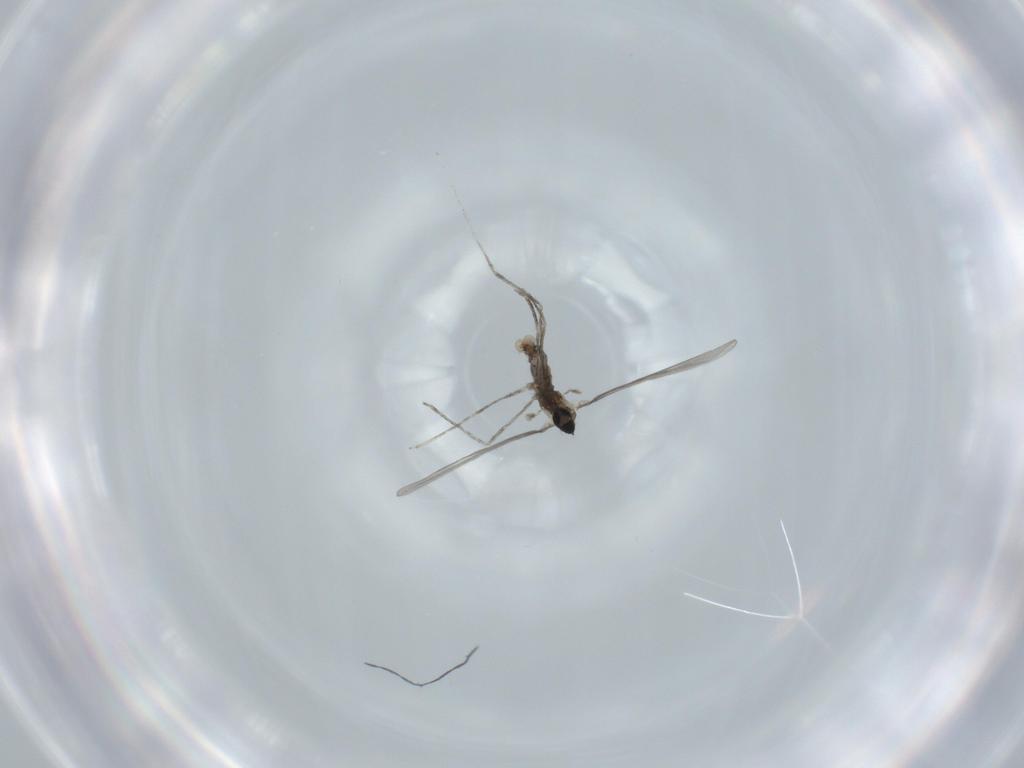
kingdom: Animalia
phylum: Arthropoda
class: Insecta
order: Diptera
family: Cecidomyiidae
